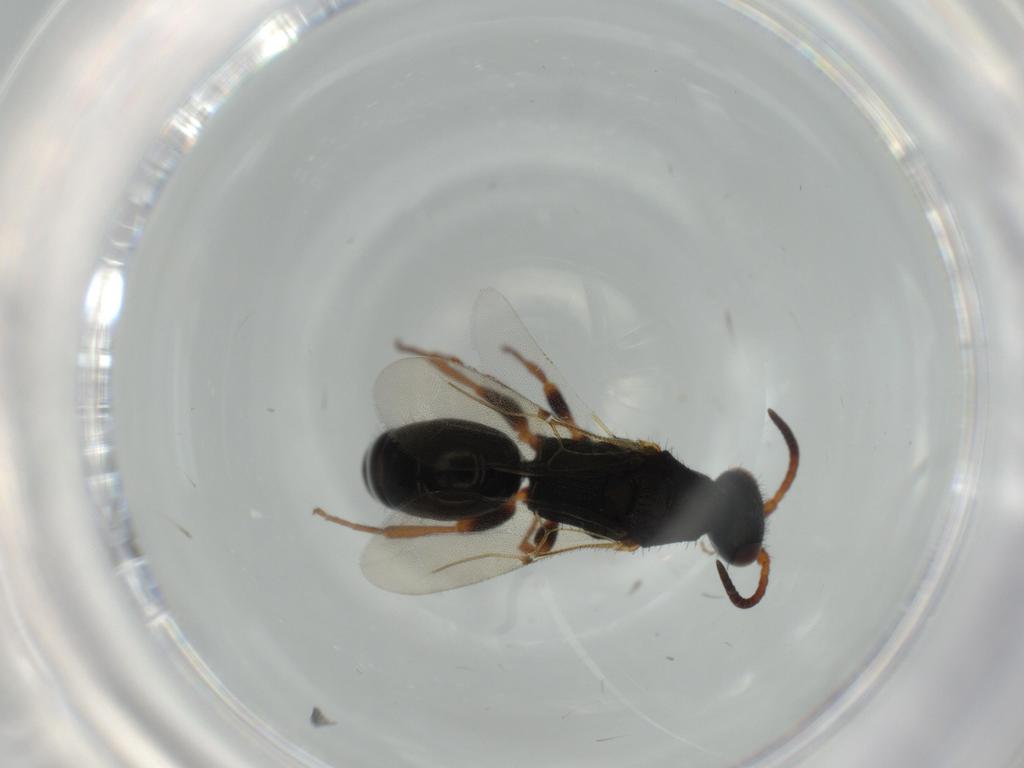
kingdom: Animalia
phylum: Arthropoda
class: Insecta
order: Hymenoptera
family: Bethylidae
